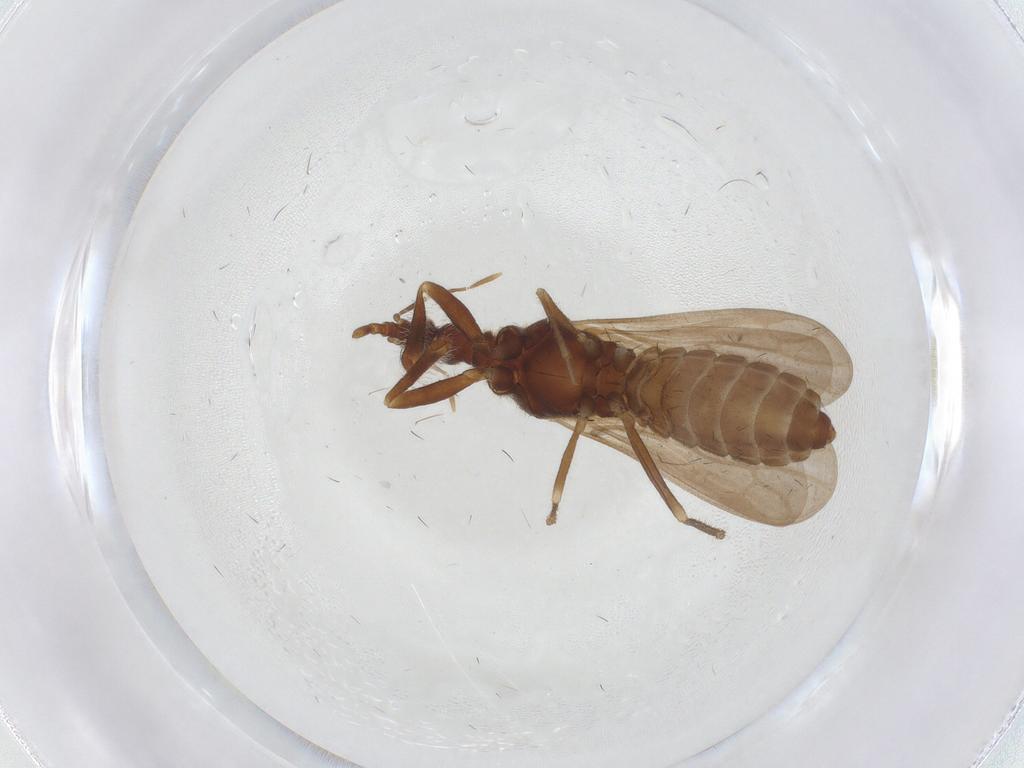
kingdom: Animalia
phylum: Arthropoda
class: Insecta
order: Hemiptera
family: Enicocephalidae
